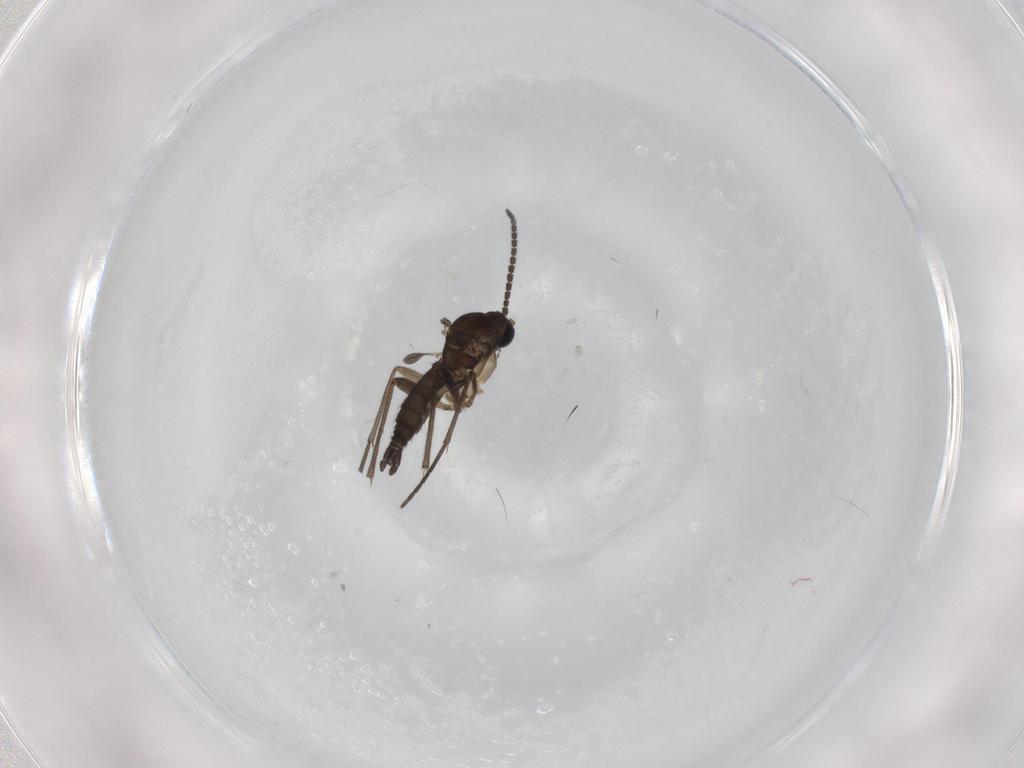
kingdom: Animalia
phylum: Arthropoda
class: Insecta
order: Diptera
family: Sciaridae
